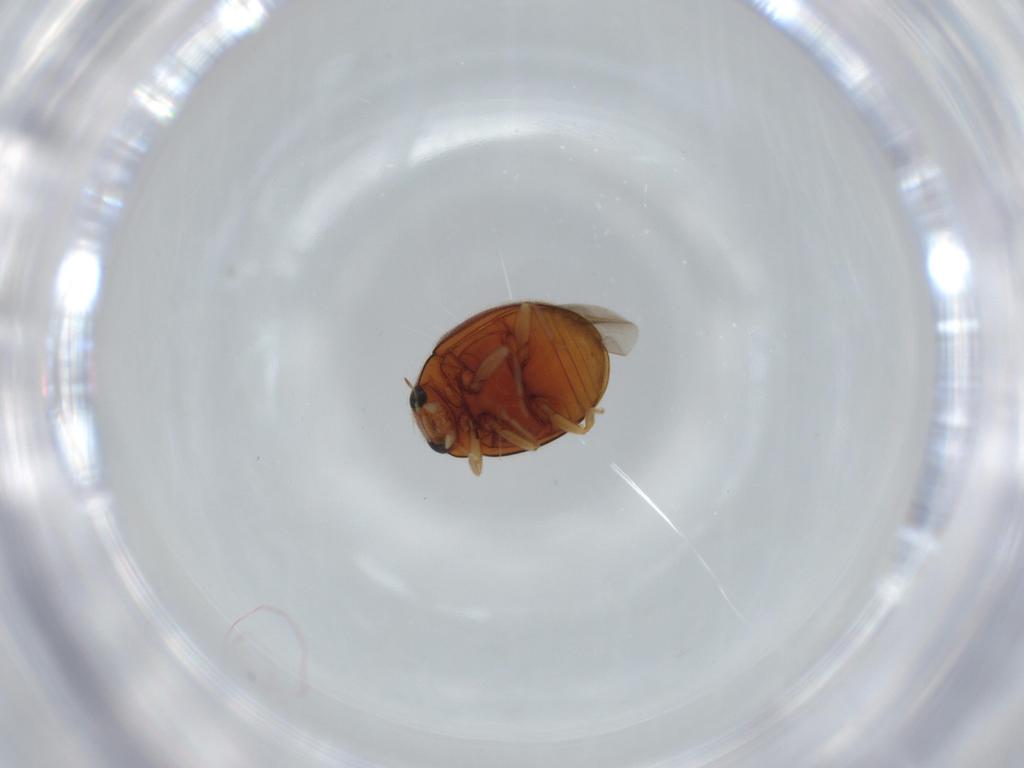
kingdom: Animalia
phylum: Arthropoda
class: Insecta
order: Coleoptera
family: Coccinellidae
